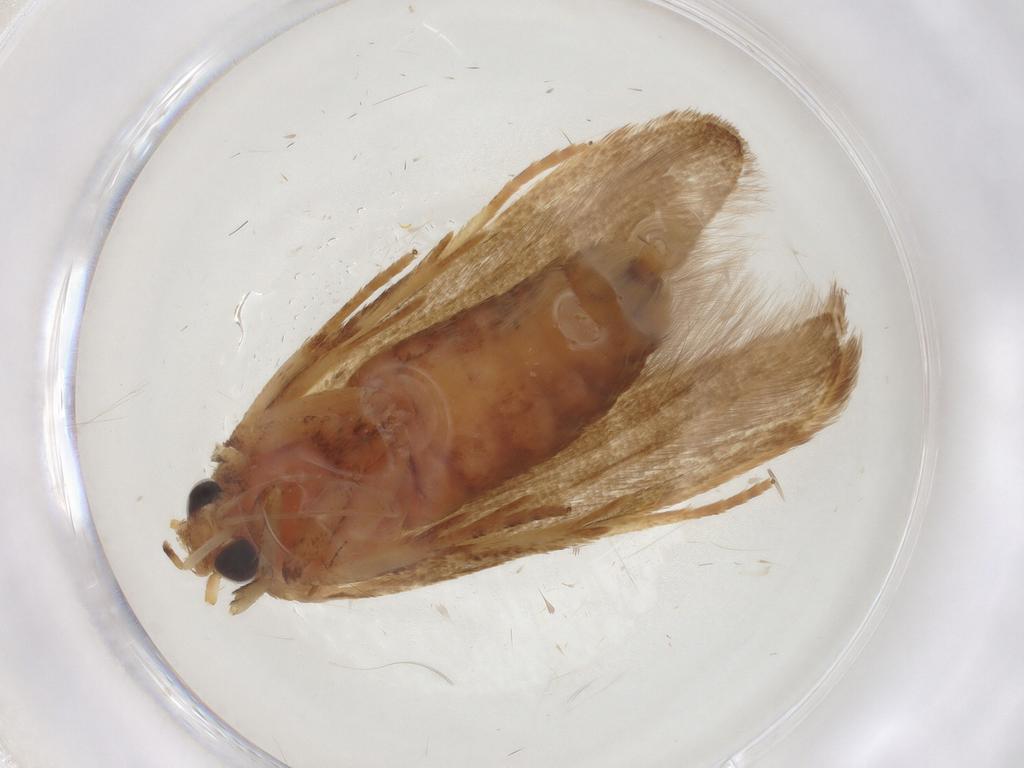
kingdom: Animalia
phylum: Arthropoda
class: Insecta
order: Lepidoptera
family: Blastobasidae
